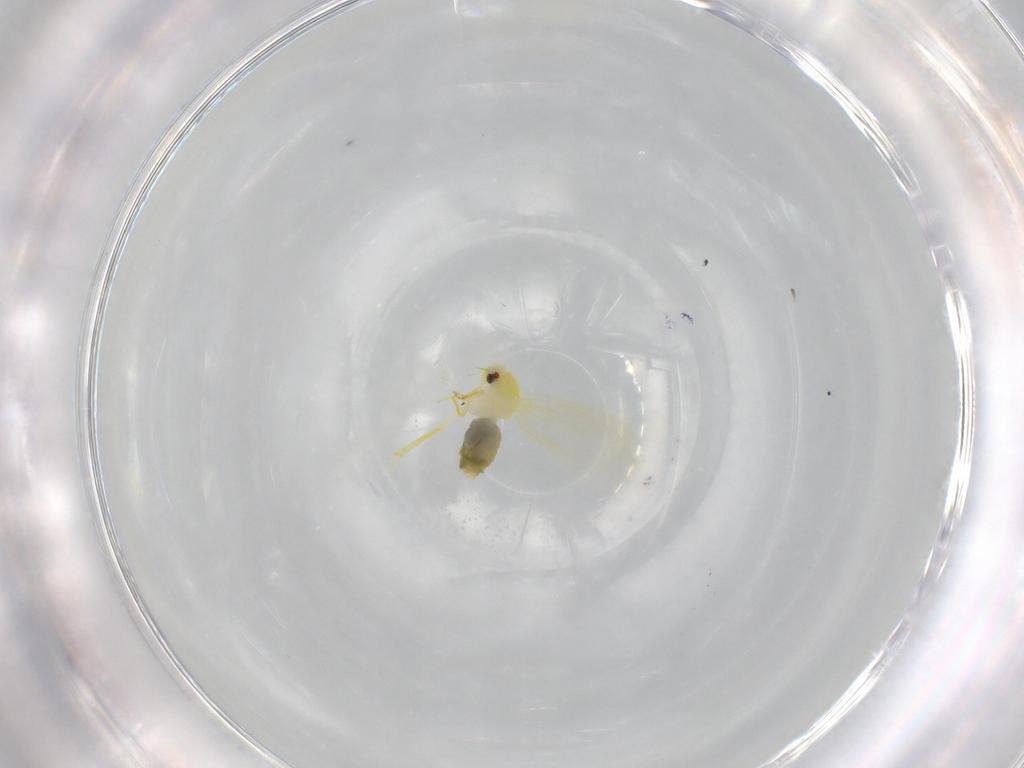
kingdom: Animalia
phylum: Arthropoda
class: Insecta
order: Hemiptera
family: Aleyrodidae
